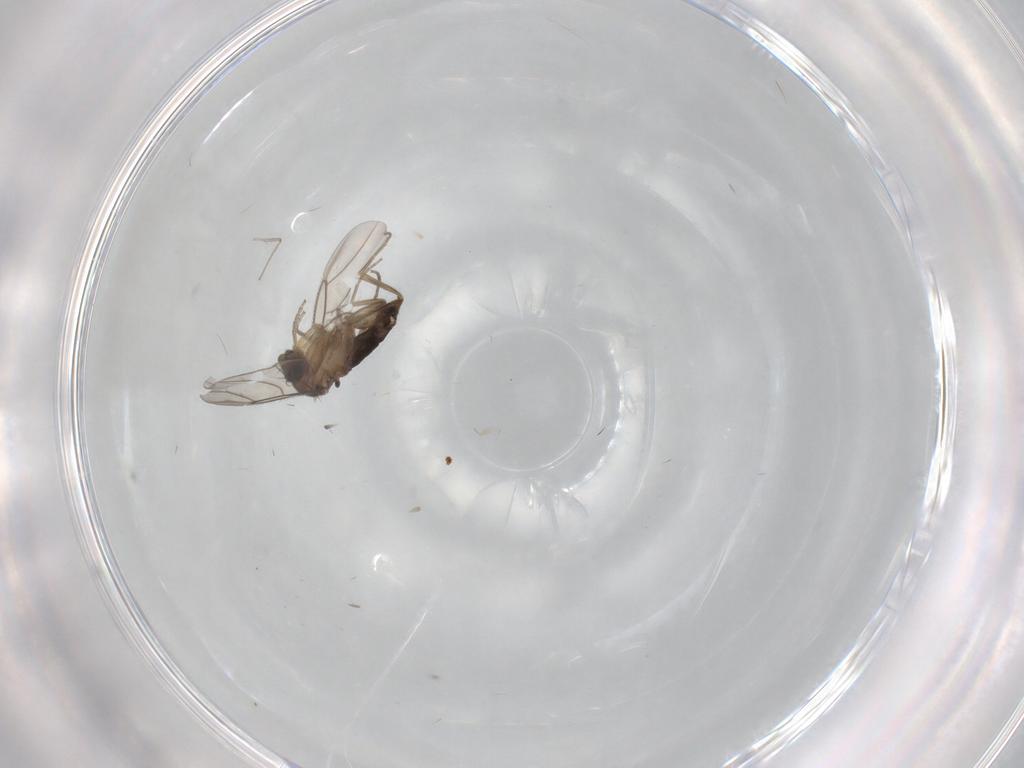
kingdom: Animalia
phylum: Arthropoda
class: Insecta
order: Diptera
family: Phoridae
